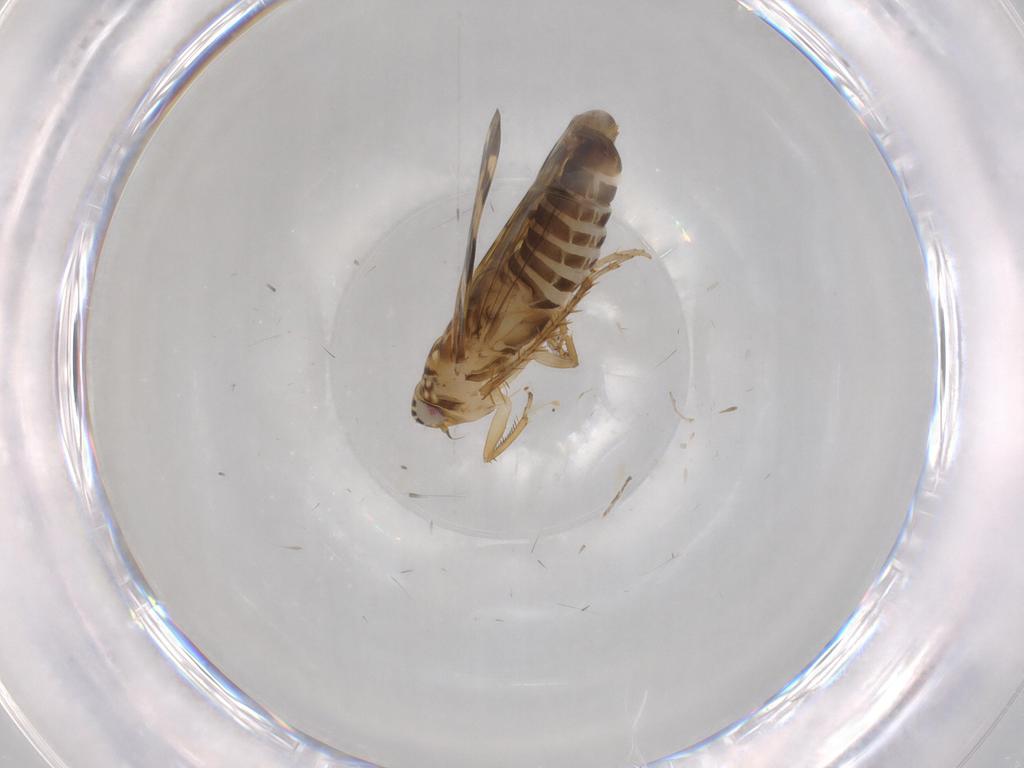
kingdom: Animalia
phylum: Arthropoda
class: Insecta
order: Hemiptera
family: Cicadellidae
